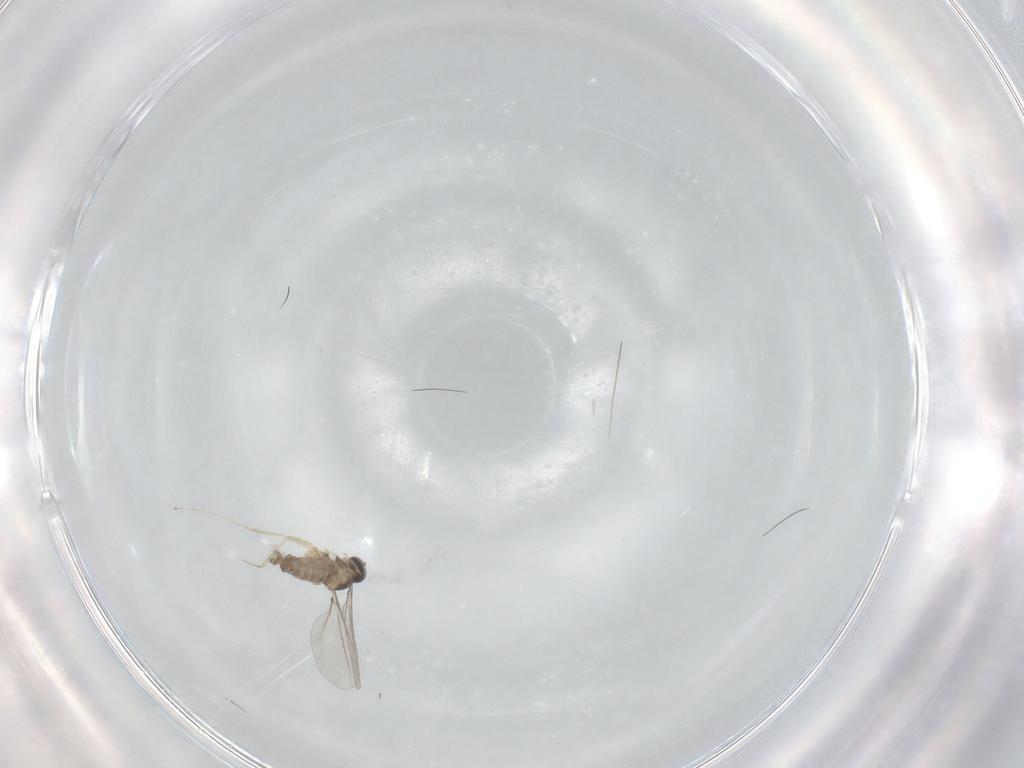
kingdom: Animalia
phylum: Arthropoda
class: Insecta
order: Diptera
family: Cecidomyiidae
